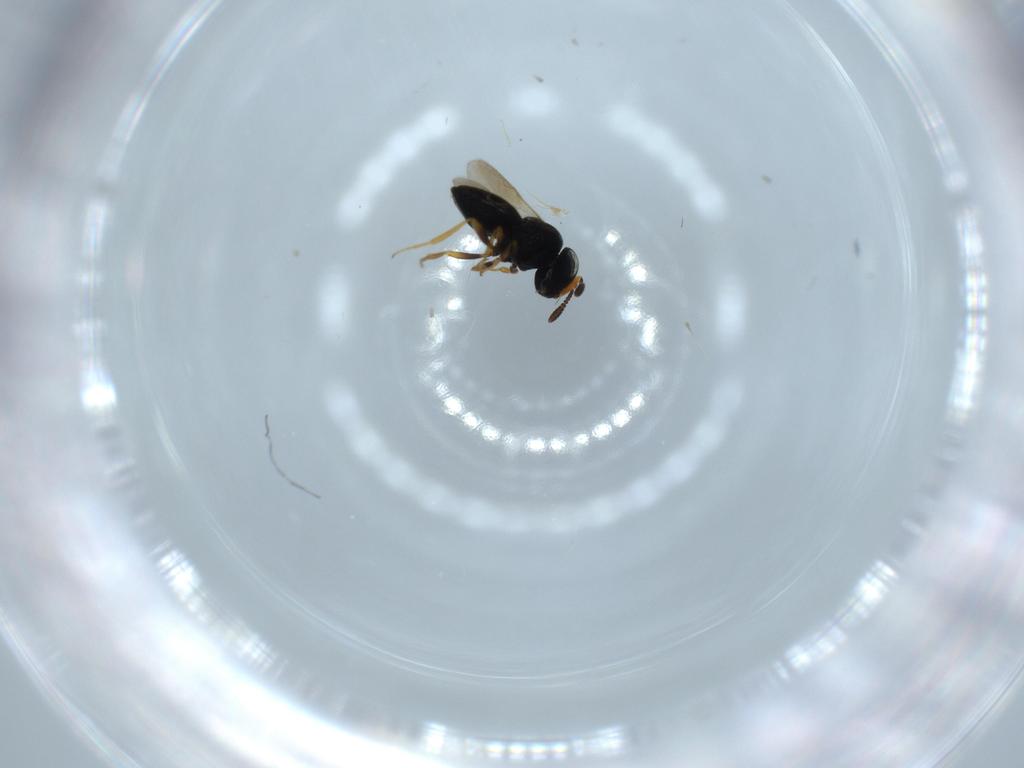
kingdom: Animalia
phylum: Arthropoda
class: Insecta
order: Hymenoptera
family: Scelionidae
